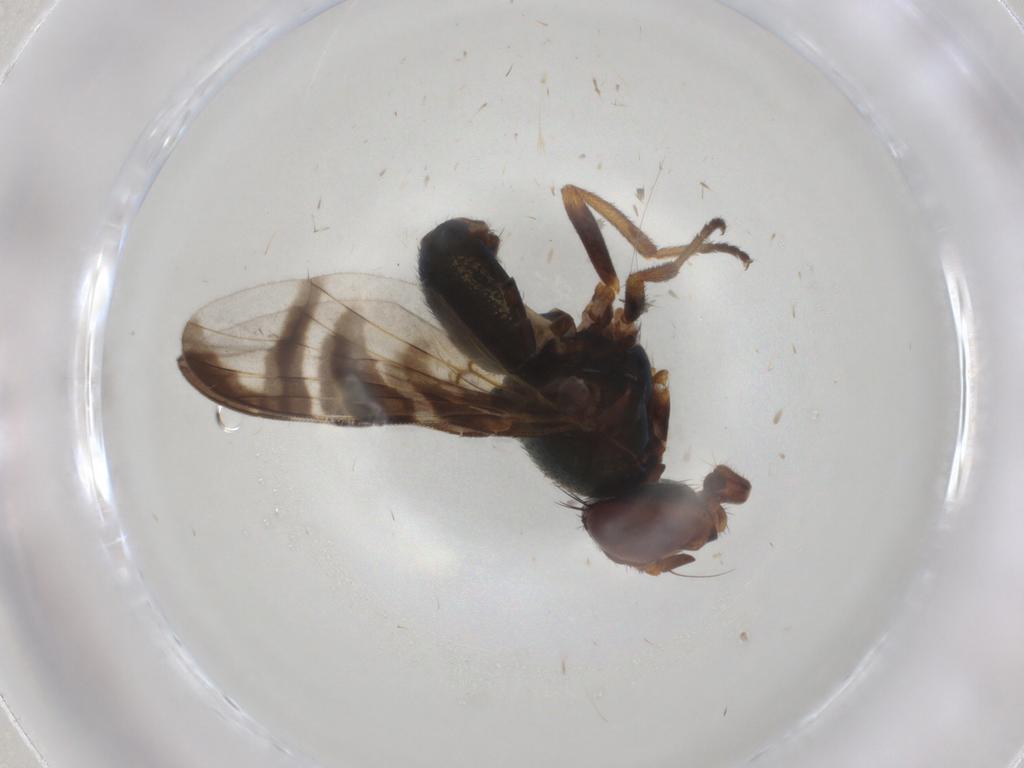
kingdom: Animalia
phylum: Arthropoda
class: Insecta
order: Diptera
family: Platystomatidae
